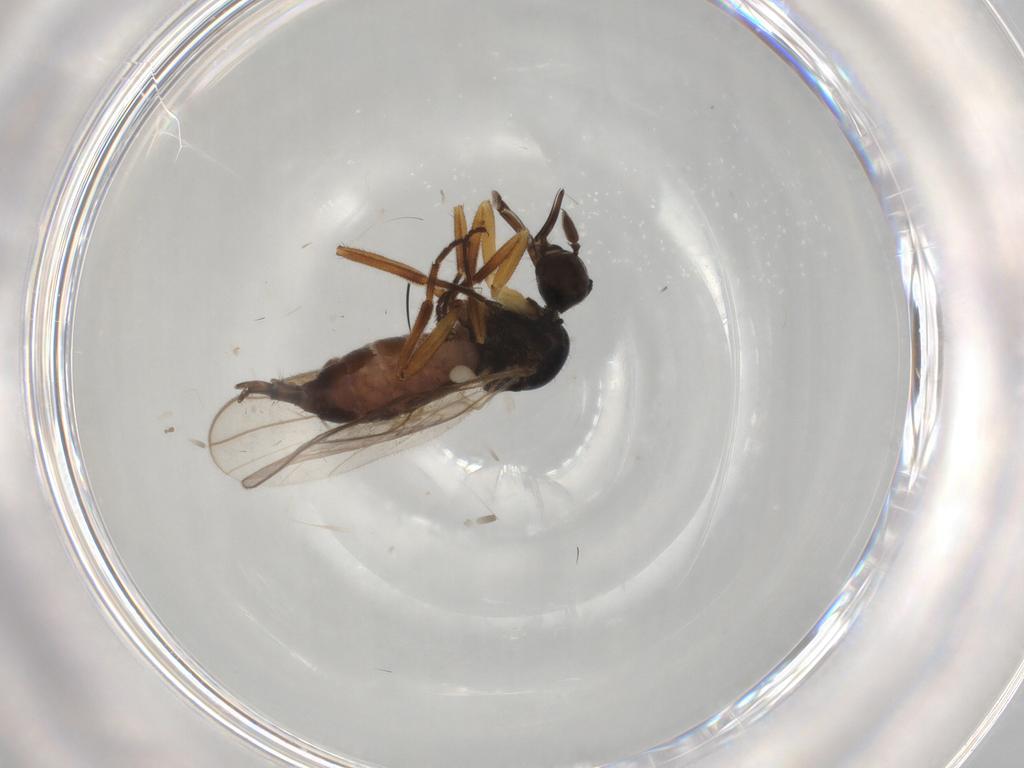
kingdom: Animalia
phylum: Arthropoda
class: Insecta
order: Diptera
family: Hybotidae
